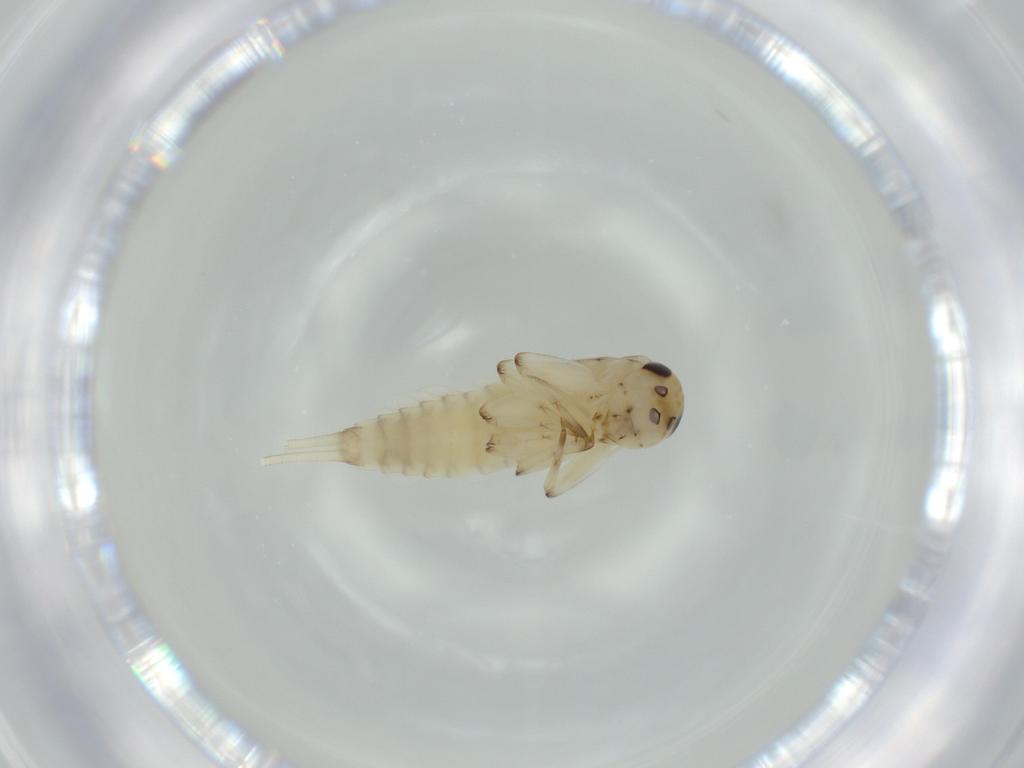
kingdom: Animalia
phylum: Arthropoda
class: Insecta
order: Ephemeroptera
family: Baetidae
